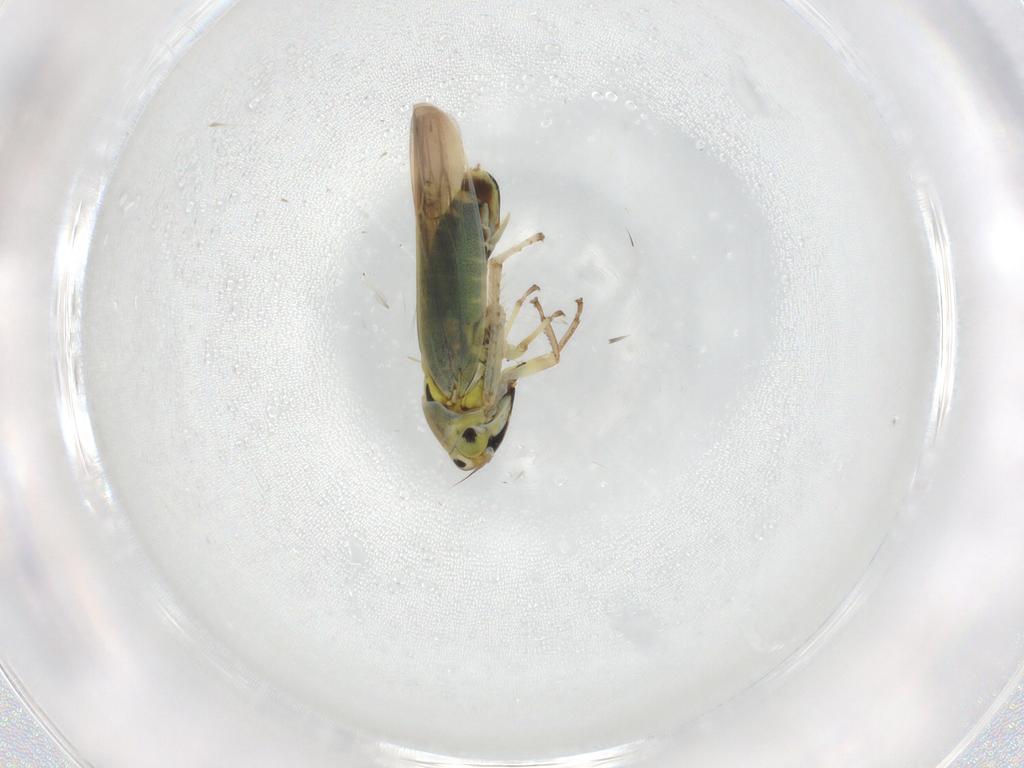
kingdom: Animalia
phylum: Arthropoda
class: Insecta
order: Hemiptera
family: Cicadellidae
